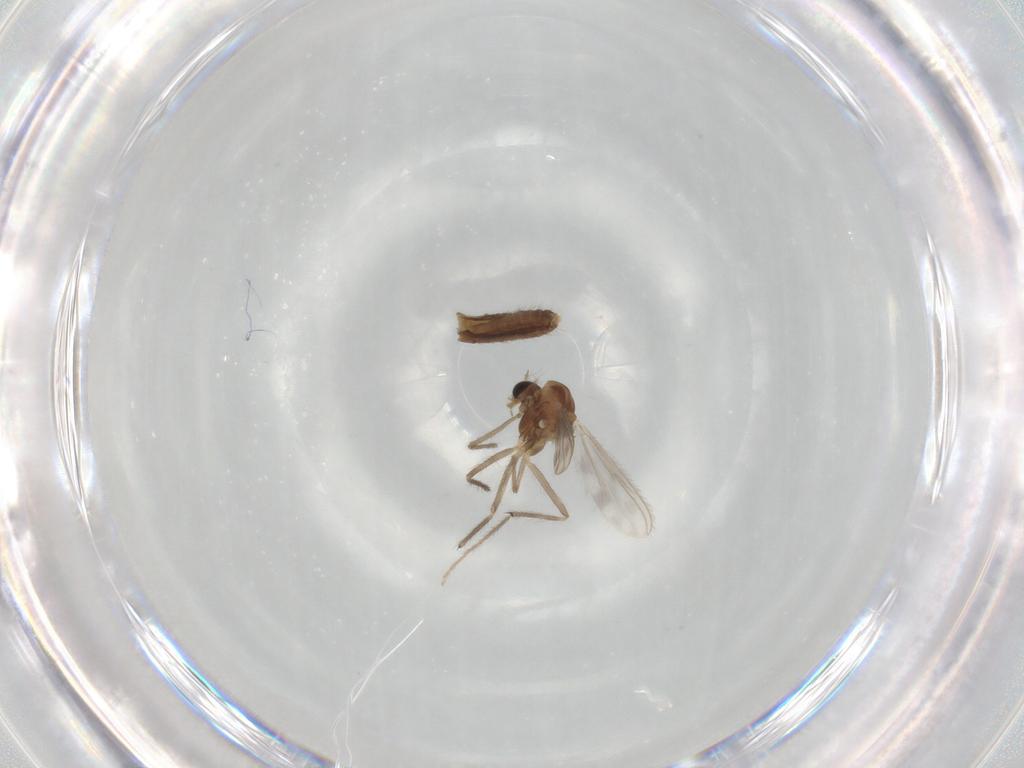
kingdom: Animalia
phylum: Arthropoda
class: Insecta
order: Diptera
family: Chironomidae
